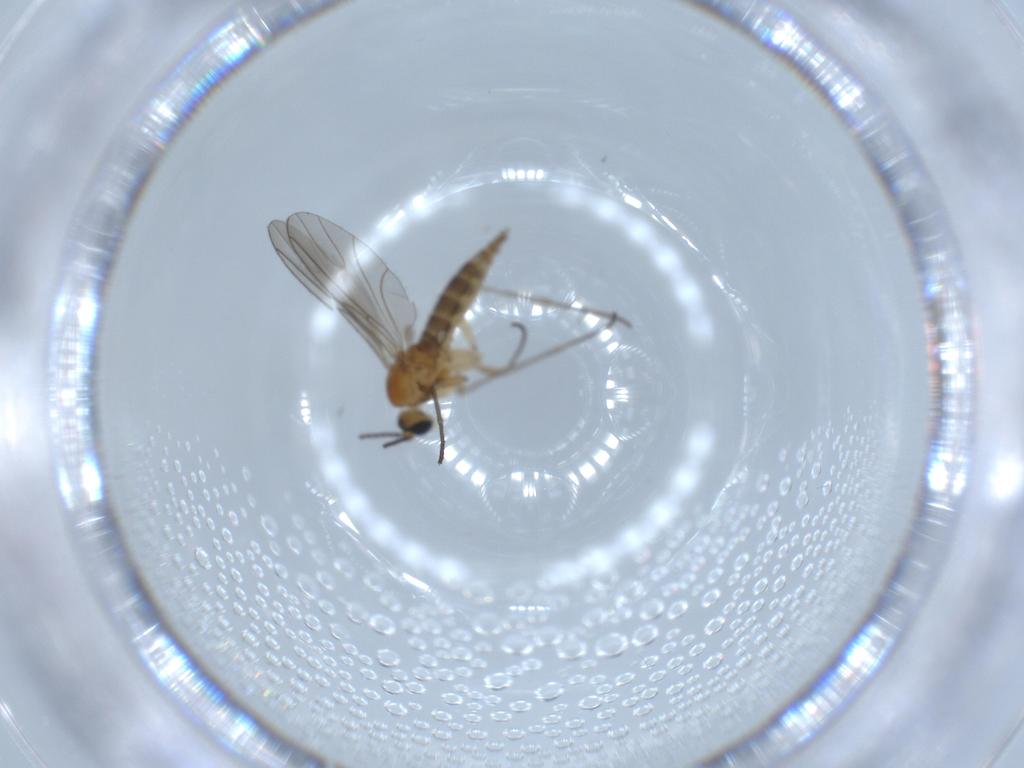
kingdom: Animalia
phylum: Arthropoda
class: Insecta
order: Diptera
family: Sciaridae
